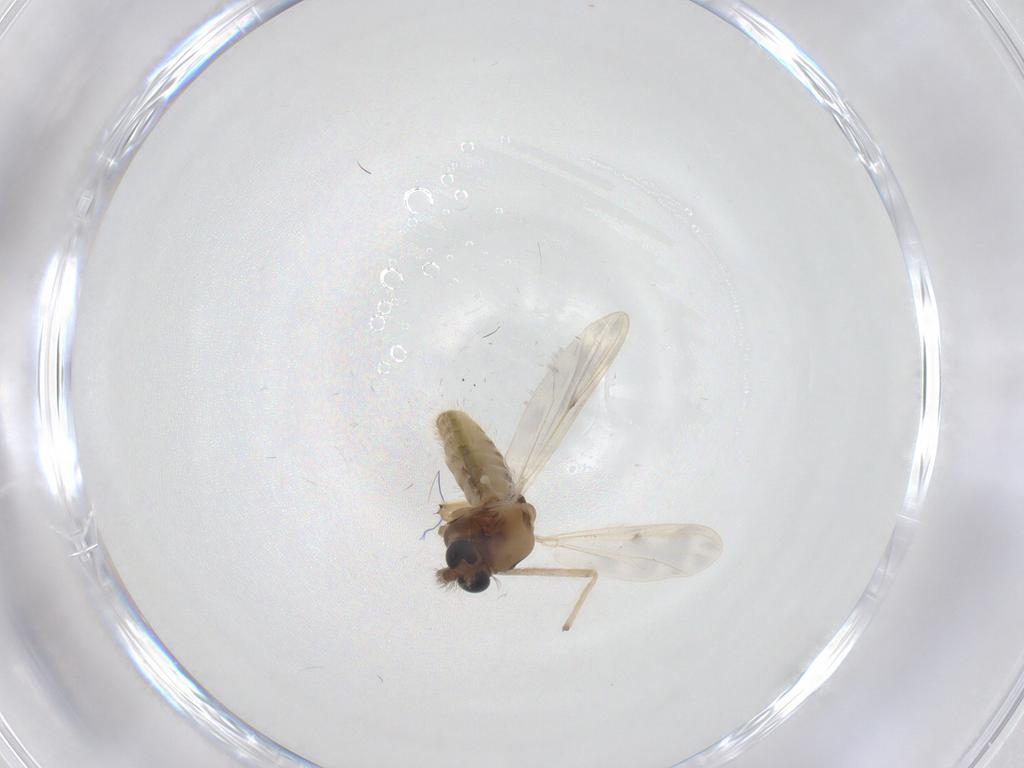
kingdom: Animalia
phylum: Arthropoda
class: Insecta
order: Diptera
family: Chironomidae
